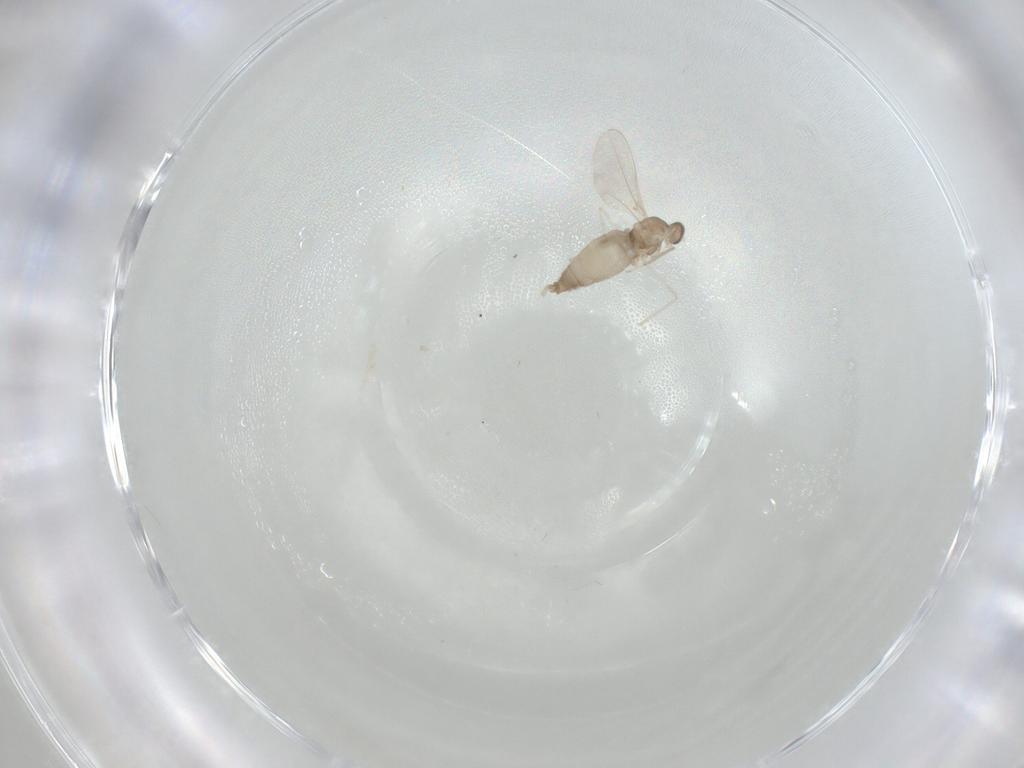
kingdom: Animalia
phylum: Arthropoda
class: Insecta
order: Diptera
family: Cecidomyiidae
